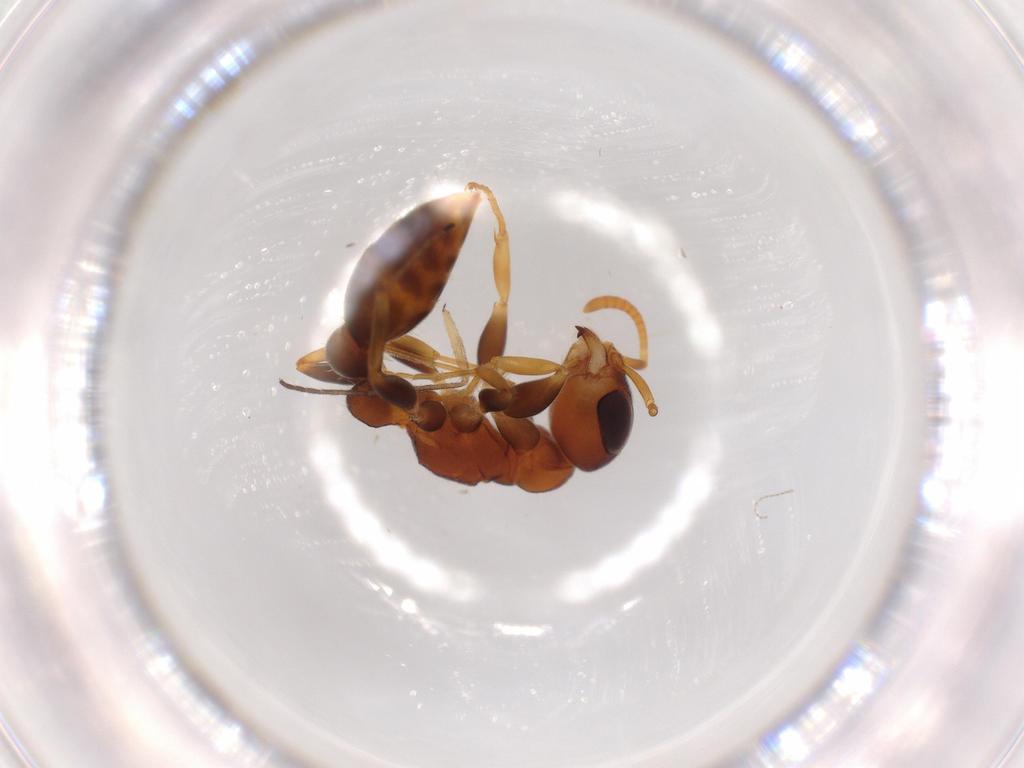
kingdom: Animalia
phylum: Arthropoda
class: Insecta
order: Hymenoptera
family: Formicidae
